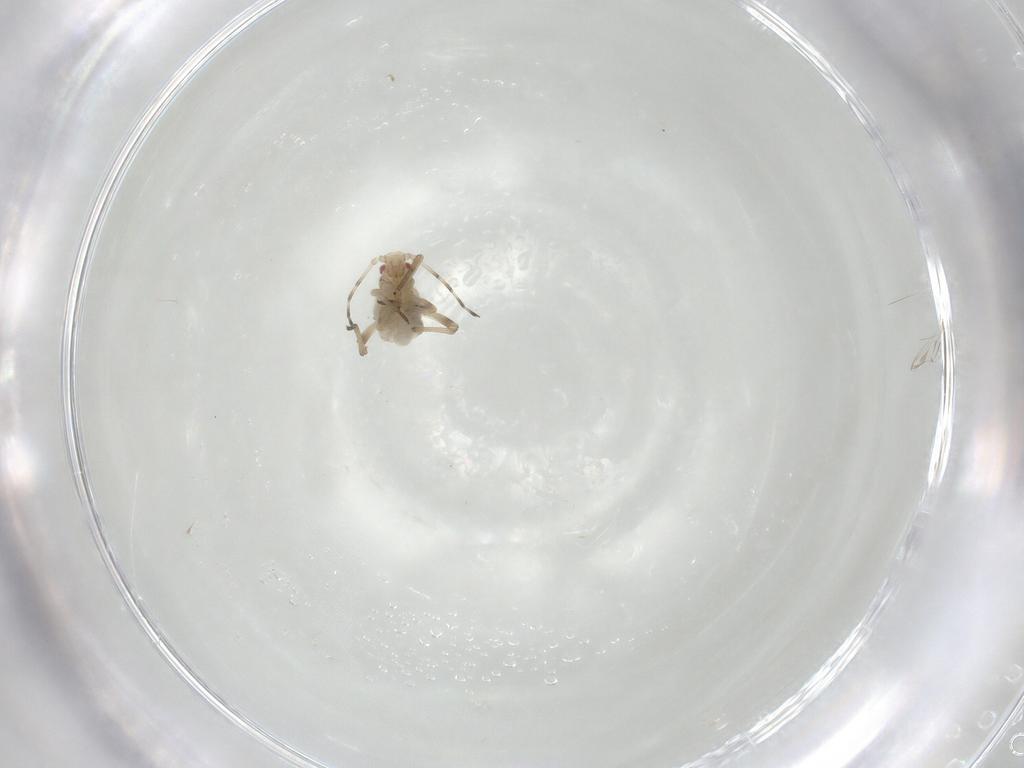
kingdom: Animalia
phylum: Arthropoda
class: Insecta
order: Hemiptera
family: Aphididae
